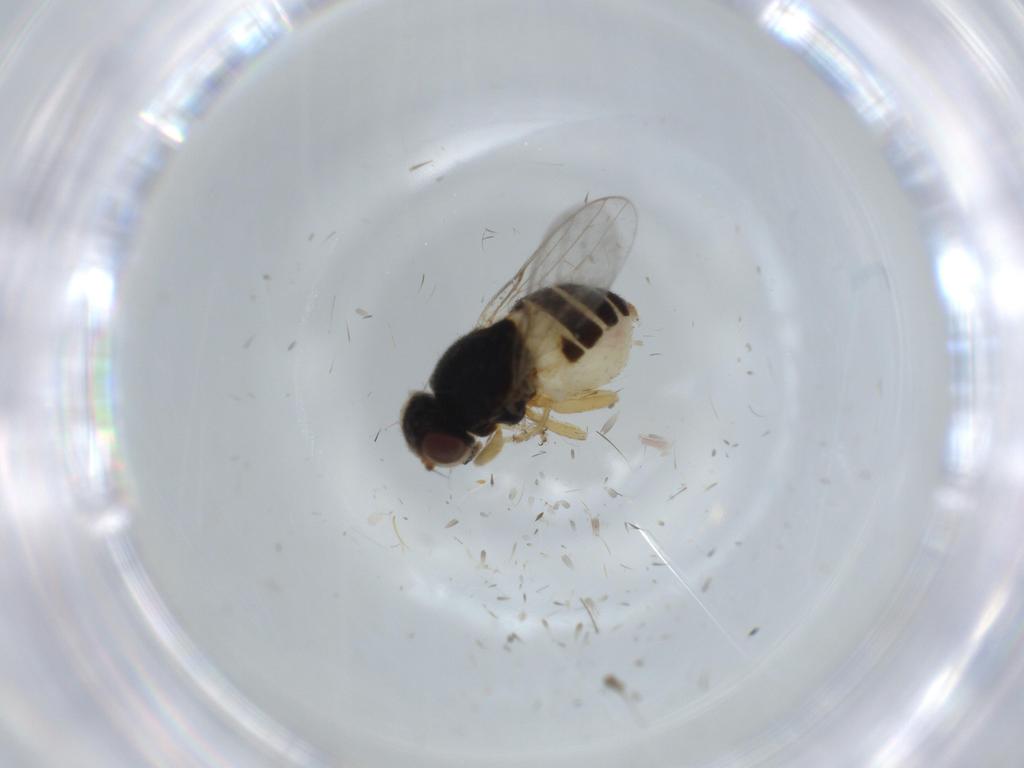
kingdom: Animalia
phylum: Arthropoda
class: Insecta
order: Diptera
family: Chloropidae
